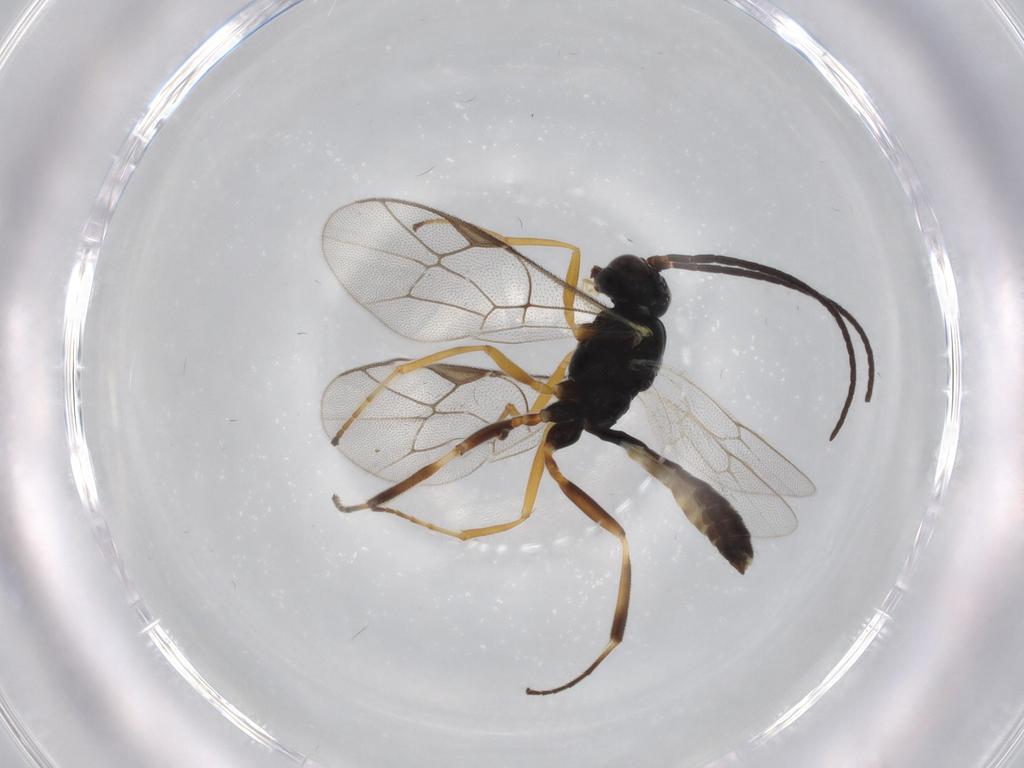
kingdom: Animalia
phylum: Arthropoda
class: Insecta
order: Hymenoptera
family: Ichneumonidae
